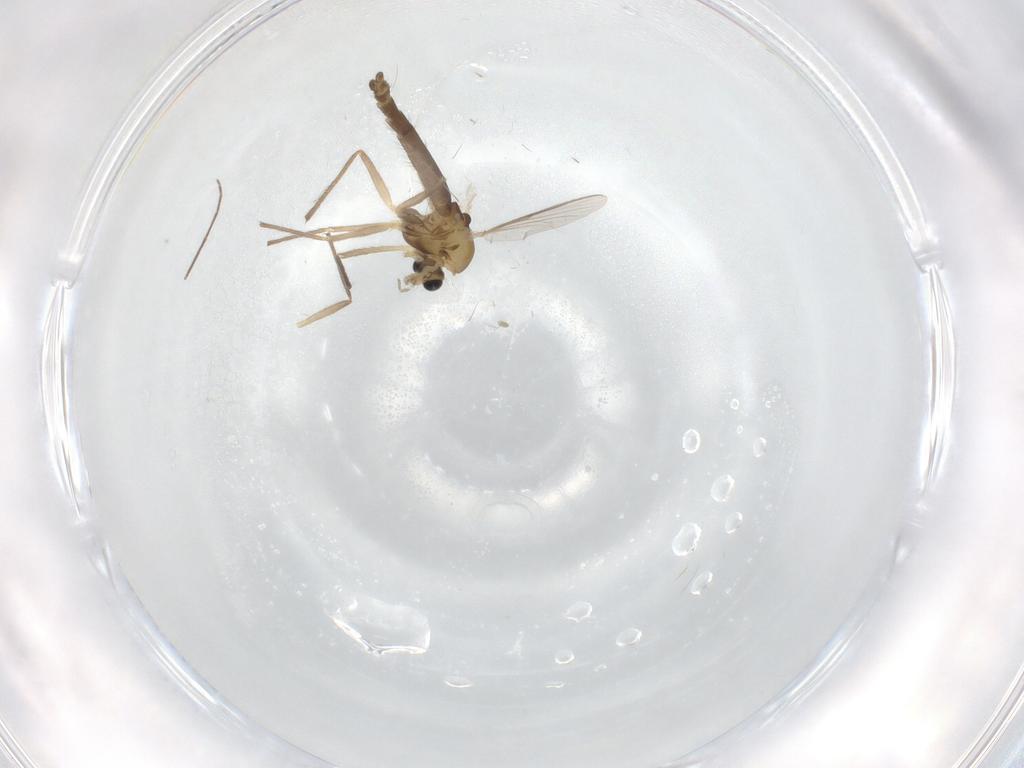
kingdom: Animalia
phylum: Arthropoda
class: Insecta
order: Diptera
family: Chironomidae
